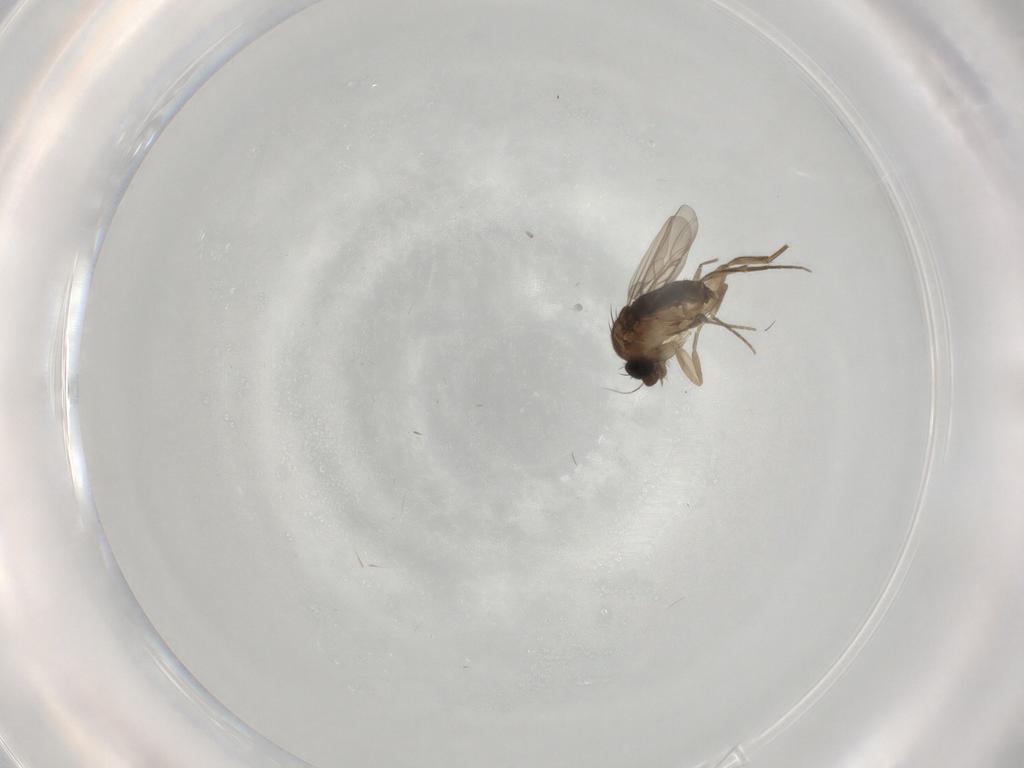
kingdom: Animalia
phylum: Arthropoda
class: Insecta
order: Diptera
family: Phoridae
